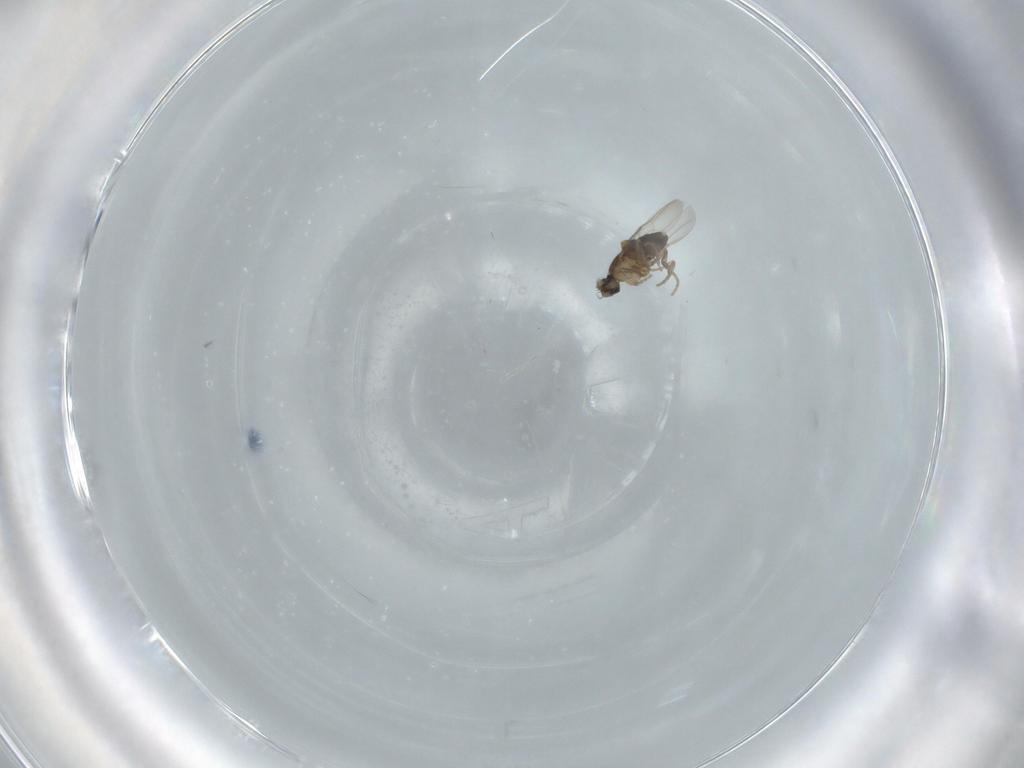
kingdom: Animalia
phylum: Arthropoda
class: Insecta
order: Diptera
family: Phoridae
